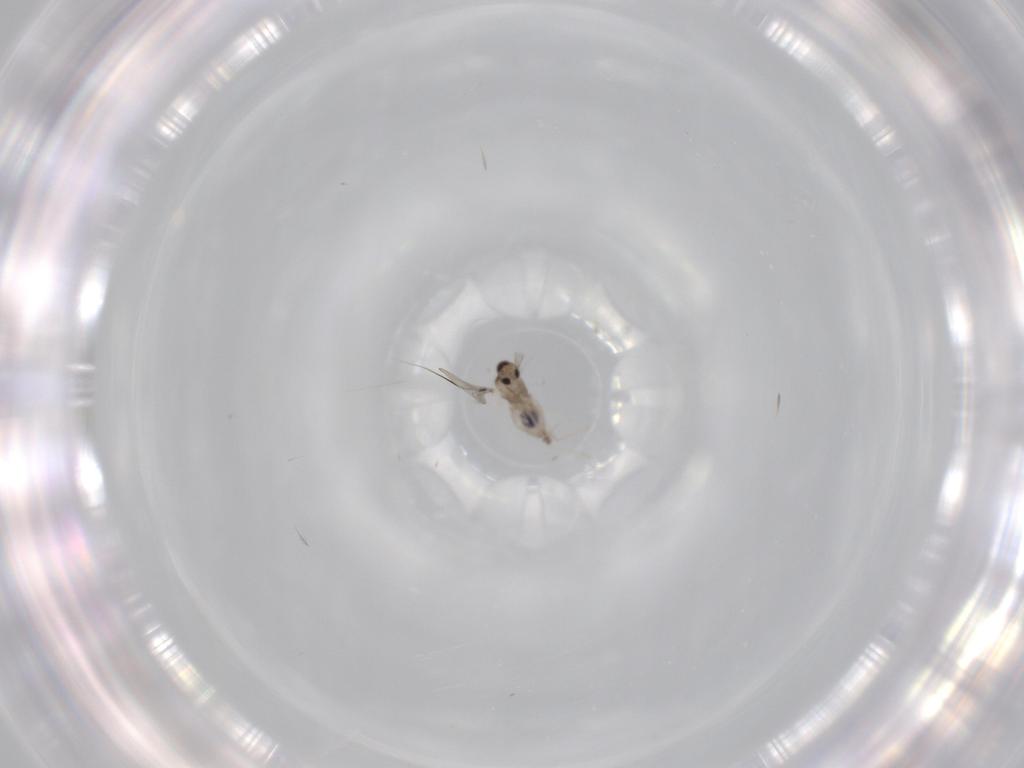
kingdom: Animalia
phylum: Arthropoda
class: Insecta
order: Diptera
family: Cecidomyiidae
